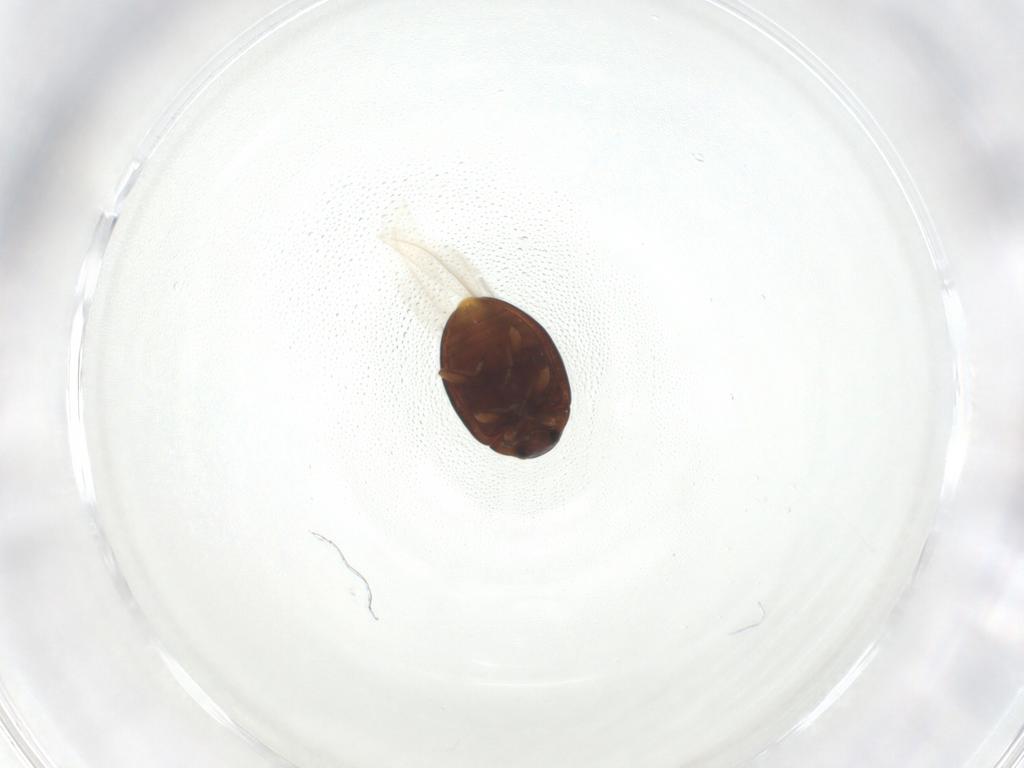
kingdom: Animalia
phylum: Arthropoda
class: Insecta
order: Coleoptera
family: Coccinellidae
